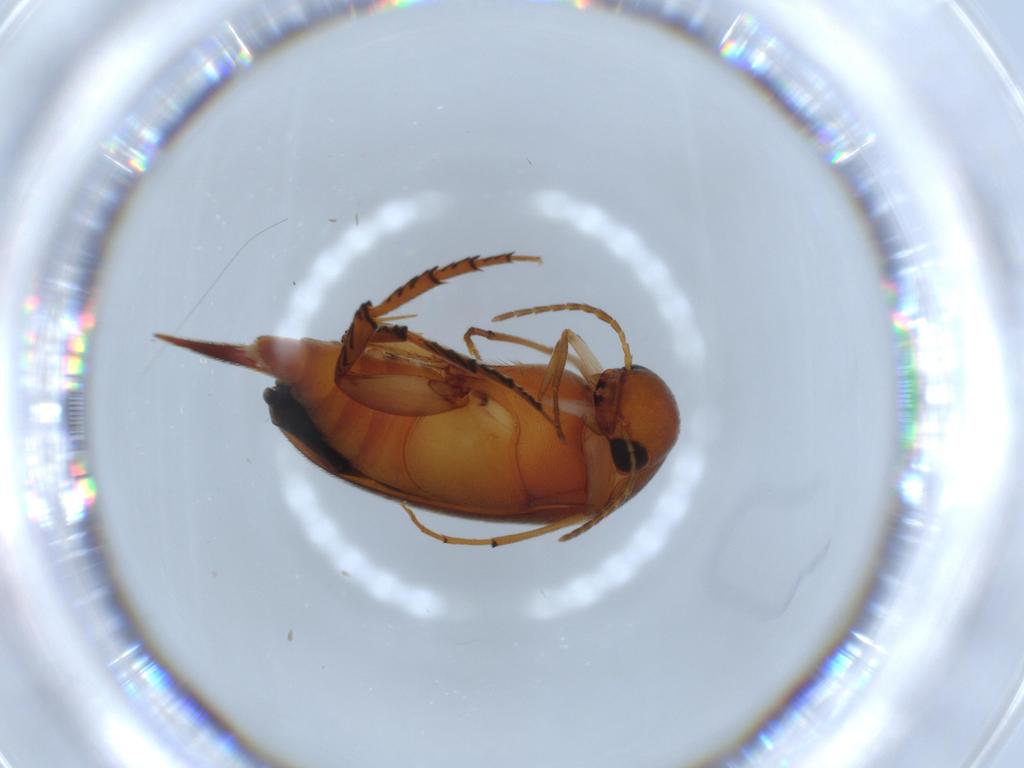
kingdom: Animalia
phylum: Arthropoda
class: Insecta
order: Coleoptera
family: Mordellidae
